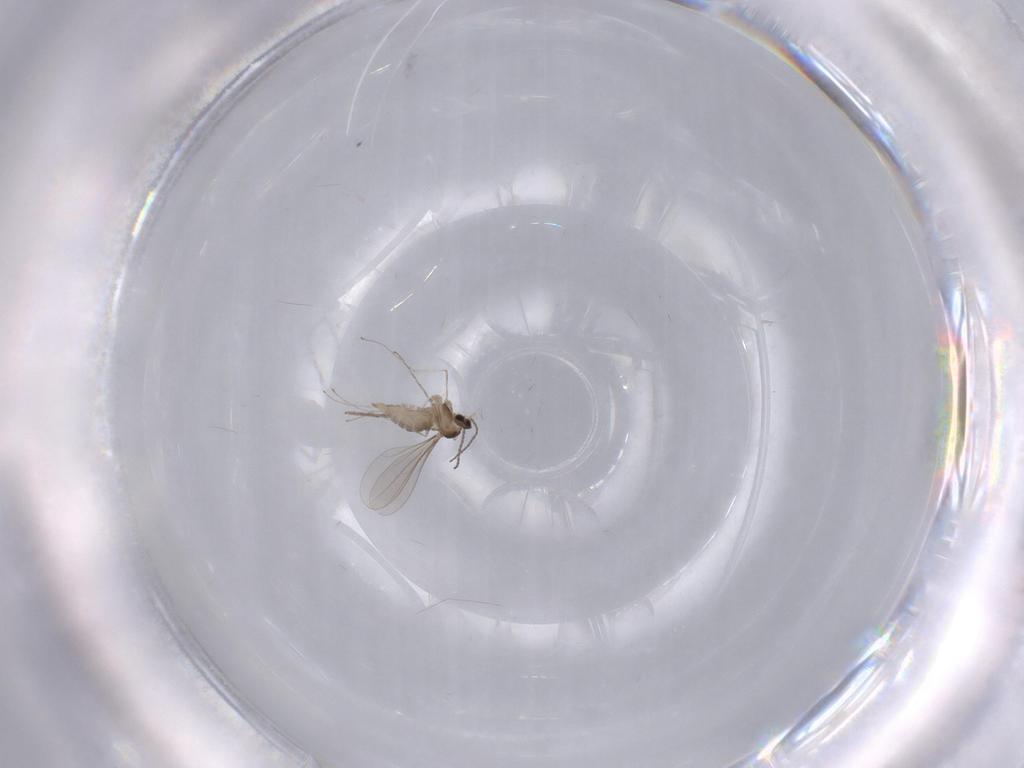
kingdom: Animalia
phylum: Arthropoda
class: Insecta
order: Diptera
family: Cecidomyiidae
